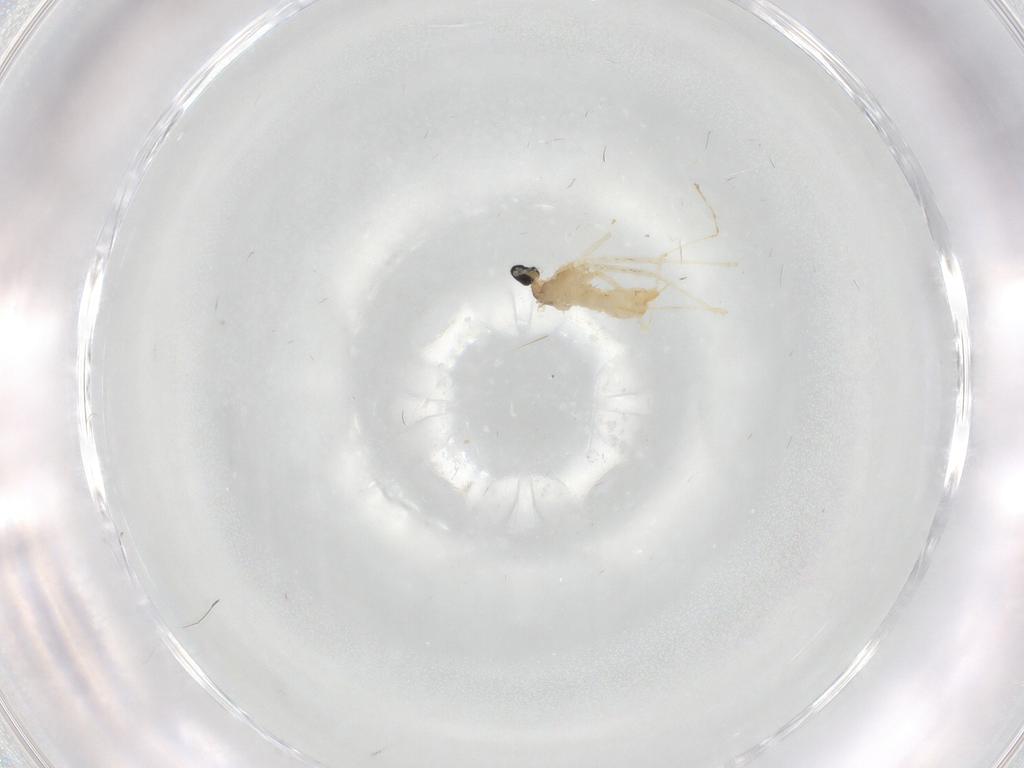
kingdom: Animalia
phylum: Arthropoda
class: Insecta
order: Diptera
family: Cecidomyiidae
